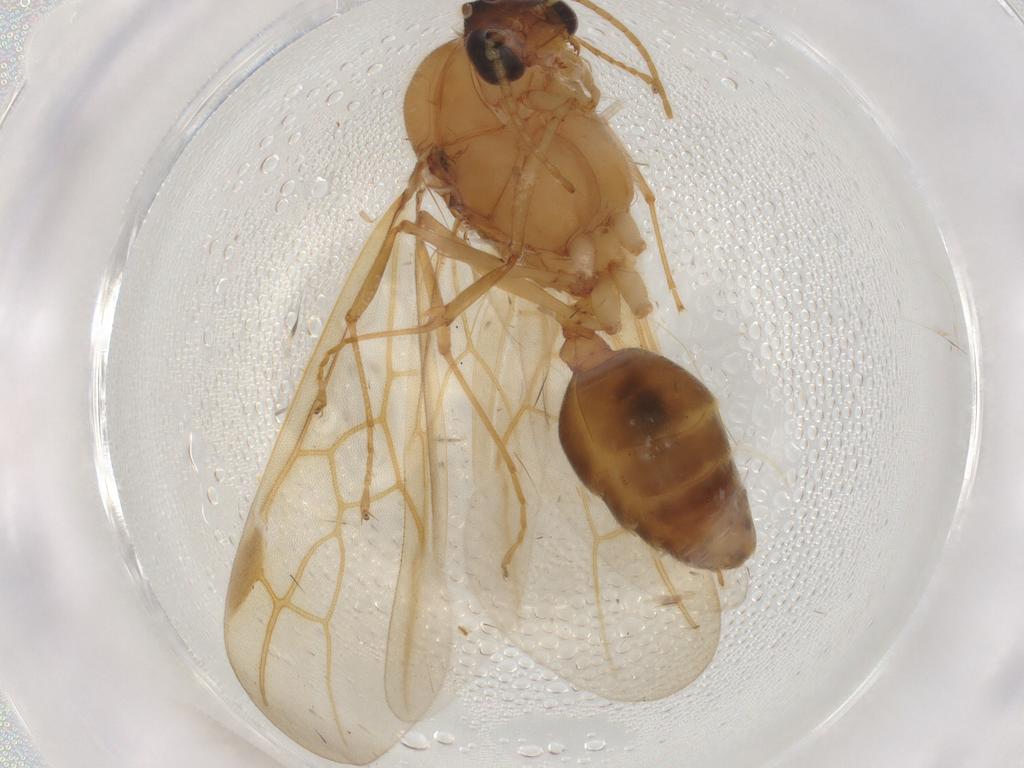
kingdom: Animalia
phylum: Arthropoda
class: Insecta
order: Hymenoptera
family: Formicidae
